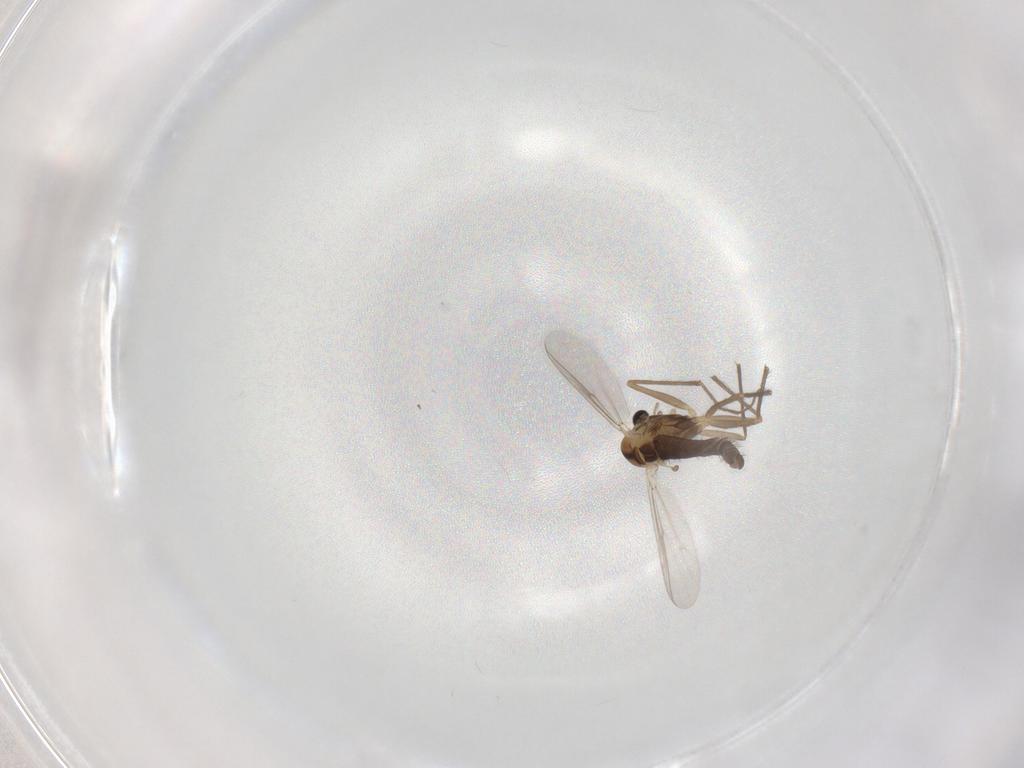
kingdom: Animalia
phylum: Arthropoda
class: Insecta
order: Diptera
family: Chironomidae
